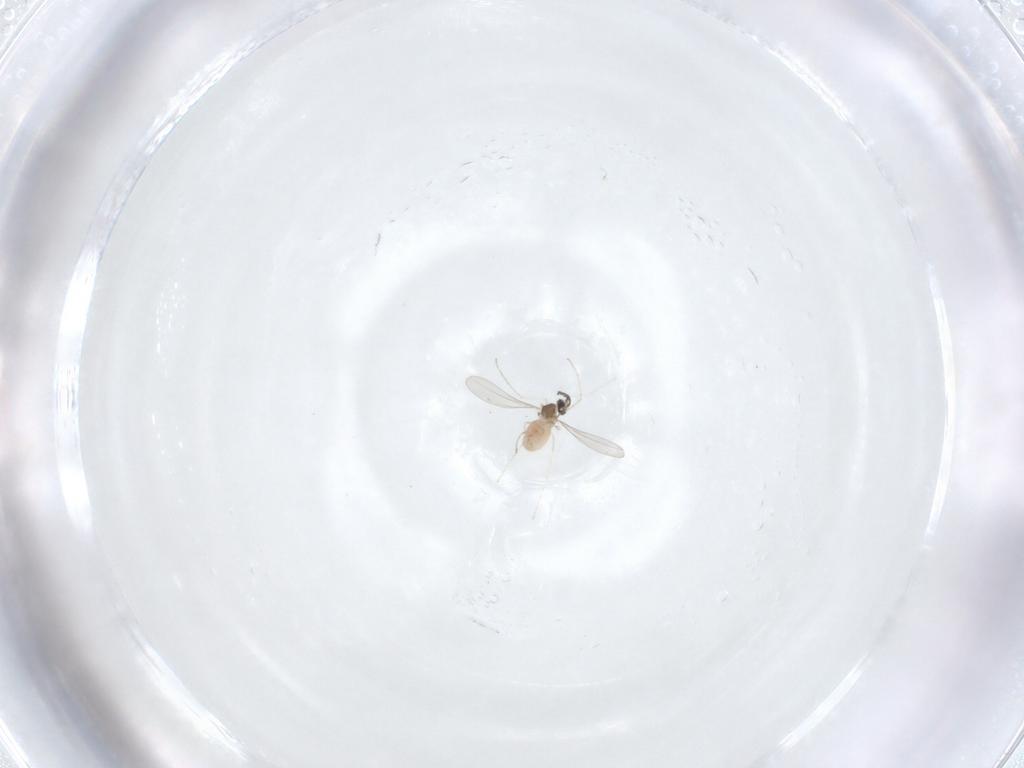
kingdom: Animalia
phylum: Arthropoda
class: Insecta
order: Diptera
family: Cecidomyiidae
